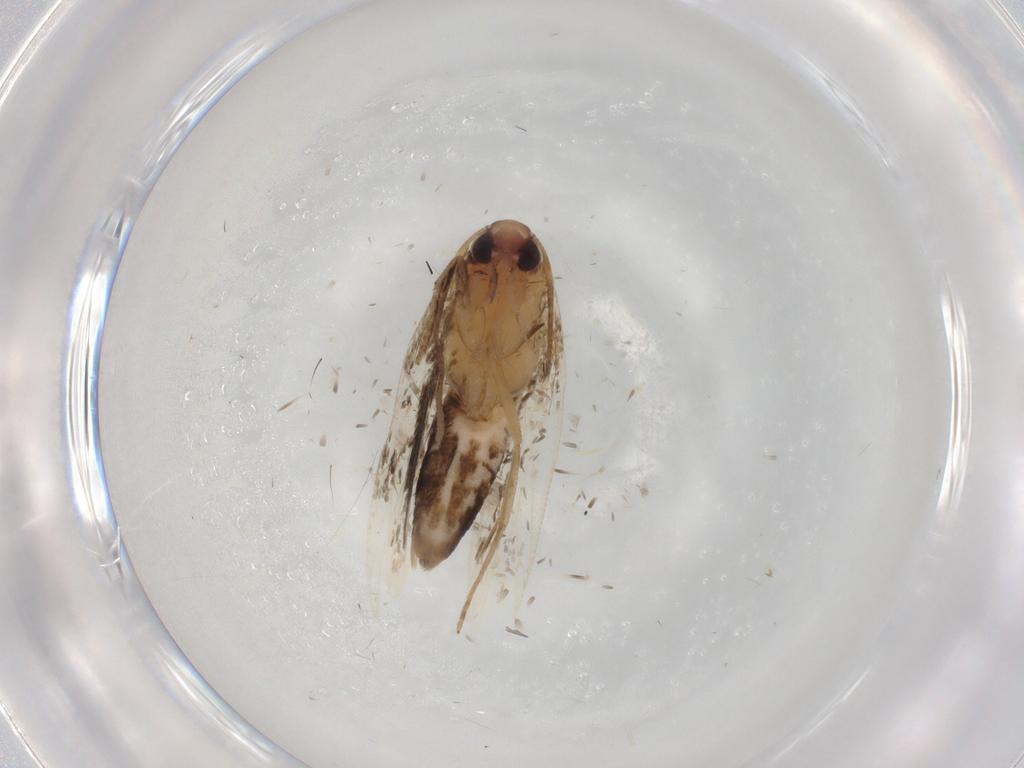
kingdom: Animalia
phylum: Arthropoda
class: Insecta
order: Lepidoptera
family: Cosmopterigidae
